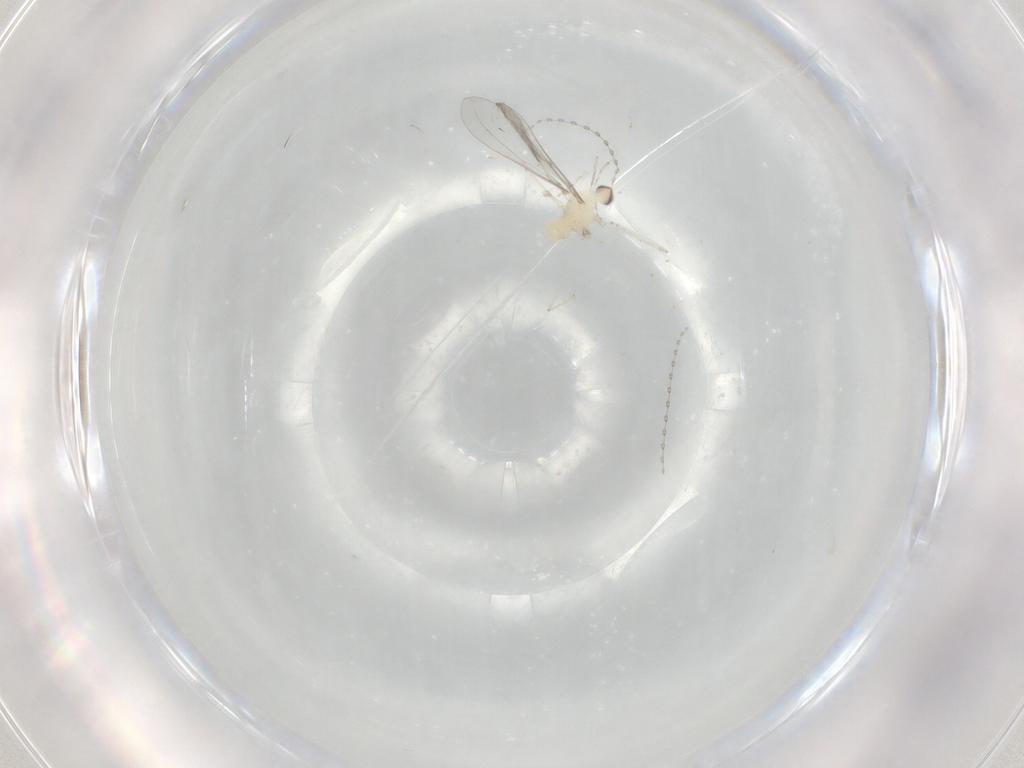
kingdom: Animalia
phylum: Arthropoda
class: Insecta
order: Diptera
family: Cecidomyiidae
